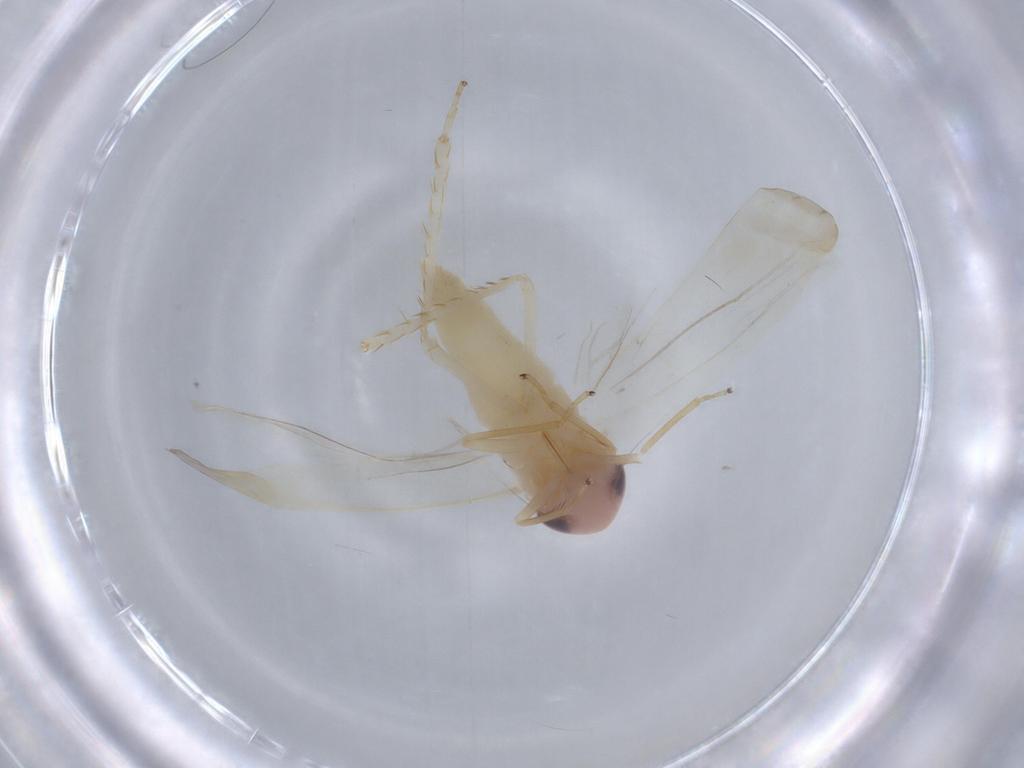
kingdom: Animalia
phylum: Arthropoda
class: Insecta
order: Hemiptera
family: Cicadellidae
